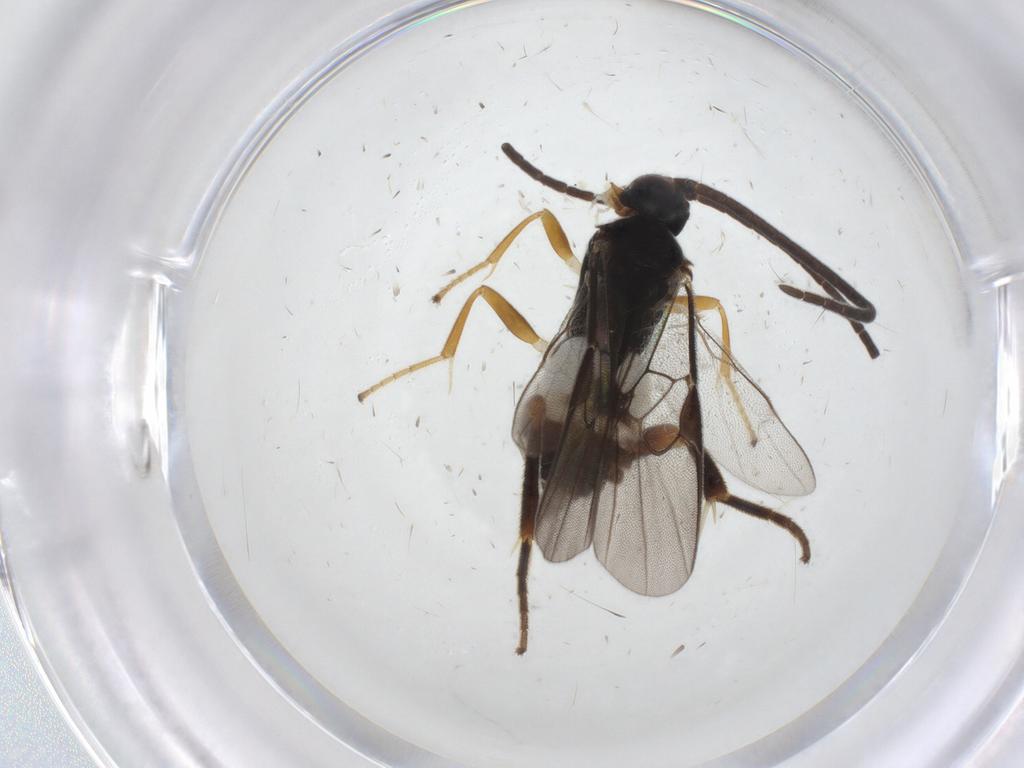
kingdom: Animalia
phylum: Arthropoda
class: Insecta
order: Hymenoptera
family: Braconidae
